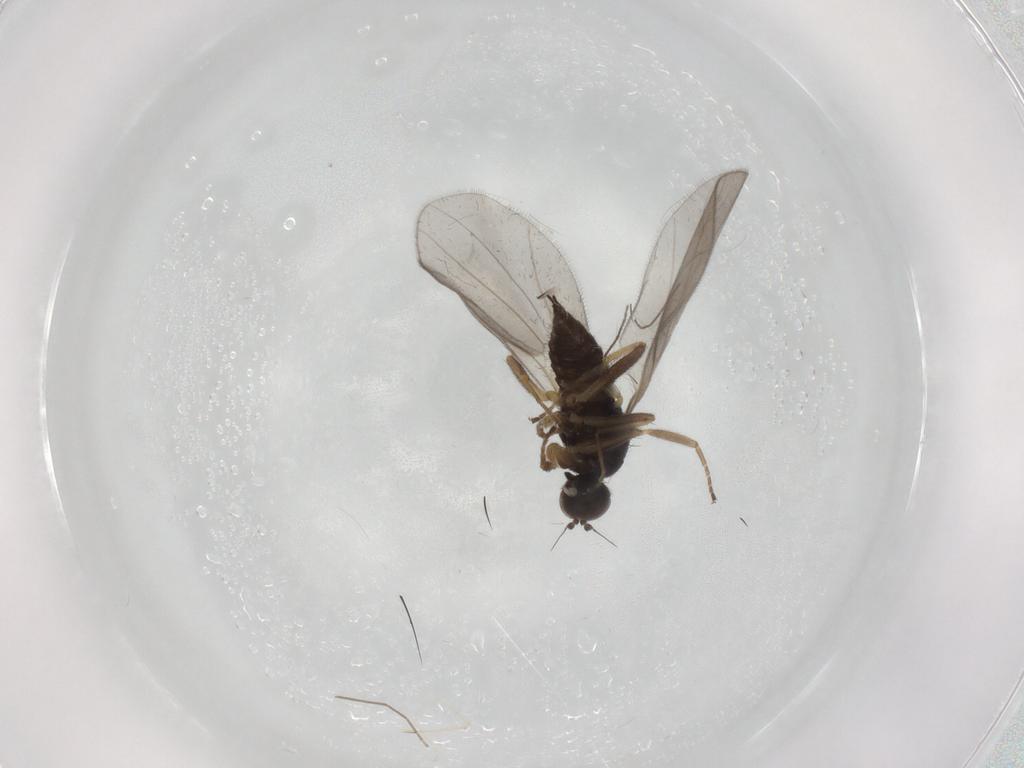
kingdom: Animalia
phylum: Arthropoda
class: Insecta
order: Diptera
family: Hybotidae
